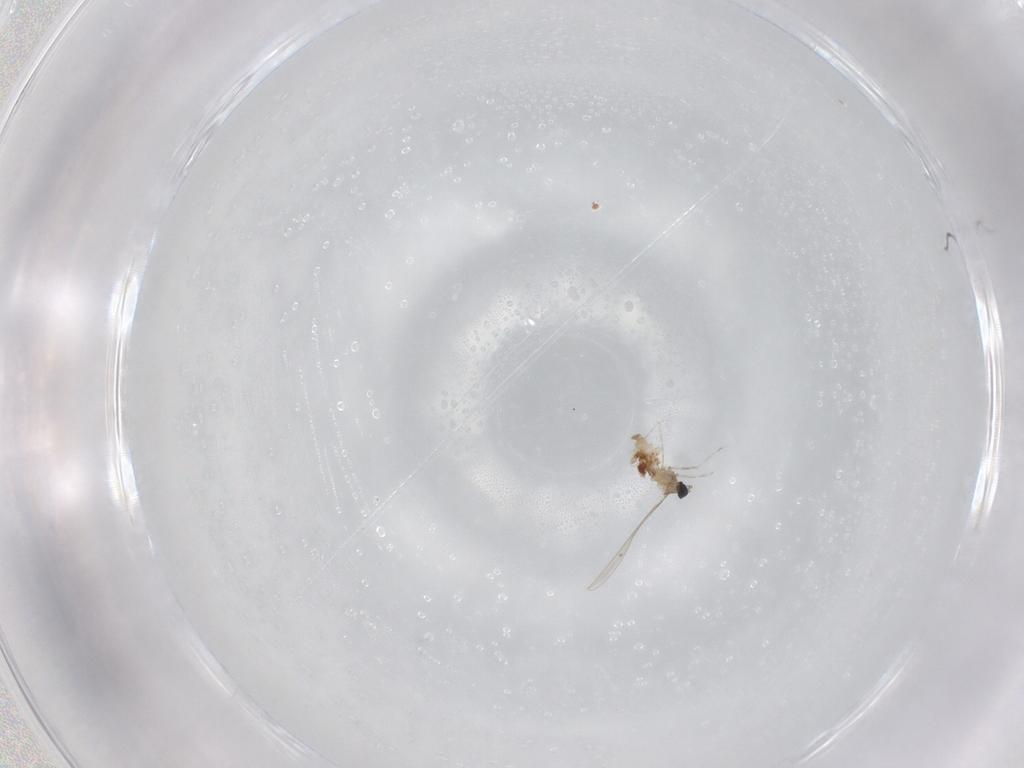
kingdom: Animalia
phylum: Arthropoda
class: Insecta
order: Diptera
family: Cecidomyiidae
